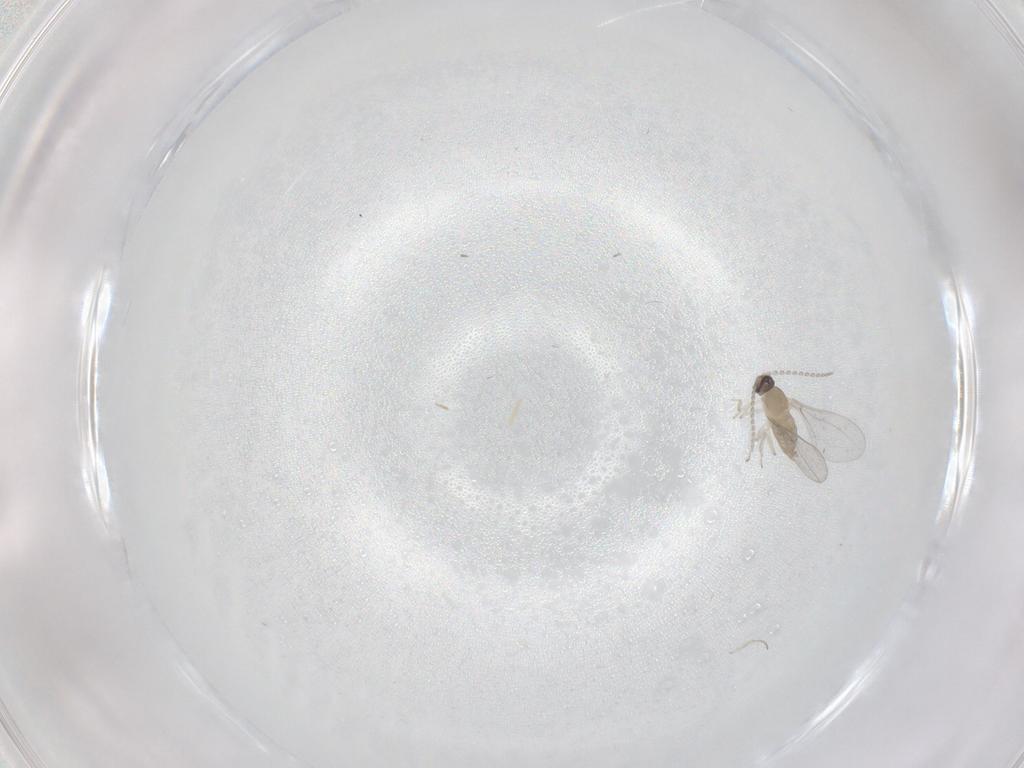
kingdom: Animalia
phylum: Arthropoda
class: Insecta
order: Diptera
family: Cecidomyiidae
